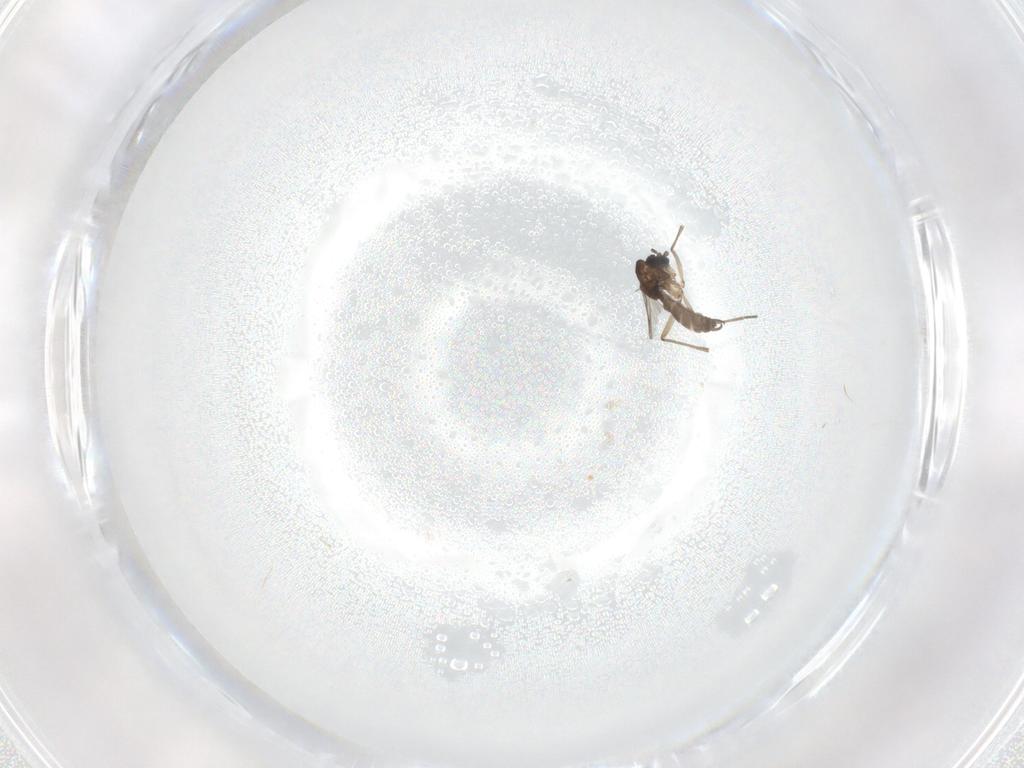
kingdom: Animalia
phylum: Arthropoda
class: Insecta
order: Diptera
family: Sciaridae
